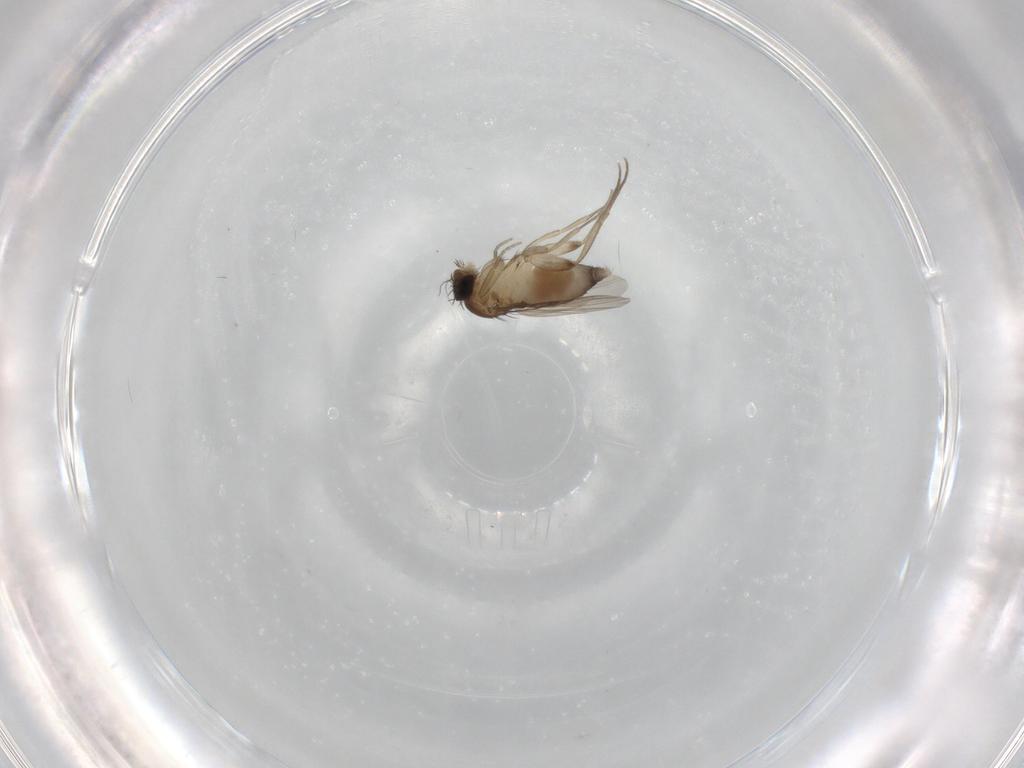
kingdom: Animalia
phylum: Arthropoda
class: Insecta
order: Diptera
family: Phoridae
